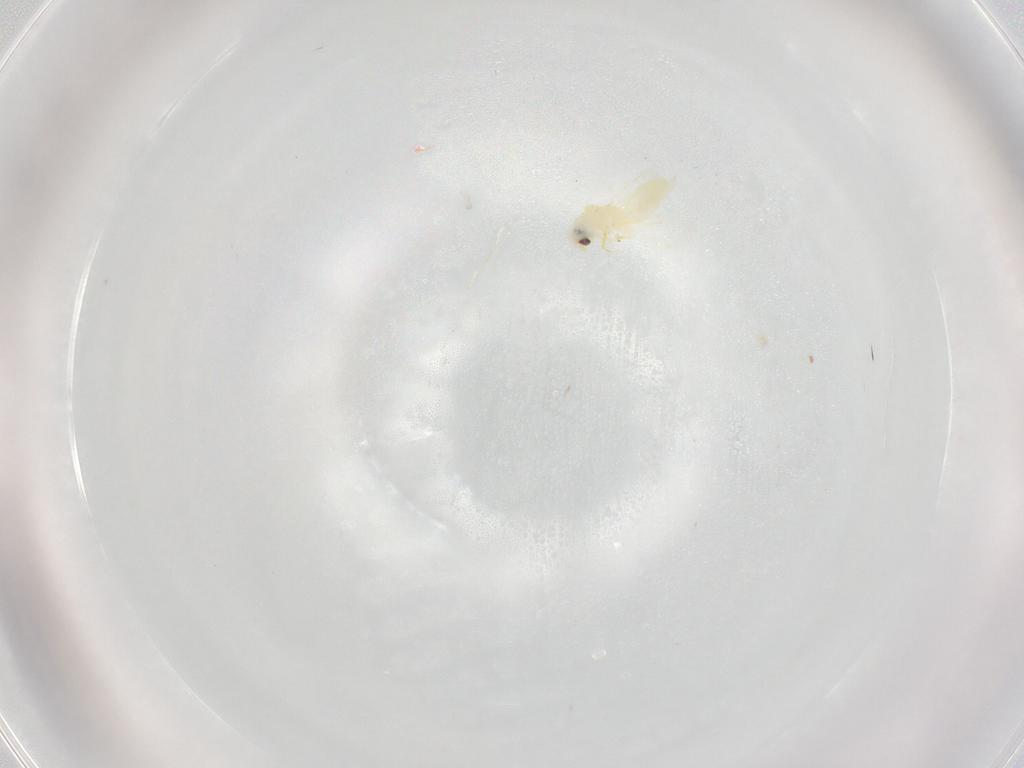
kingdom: Animalia
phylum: Arthropoda
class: Insecta
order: Hemiptera
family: Aleyrodidae
